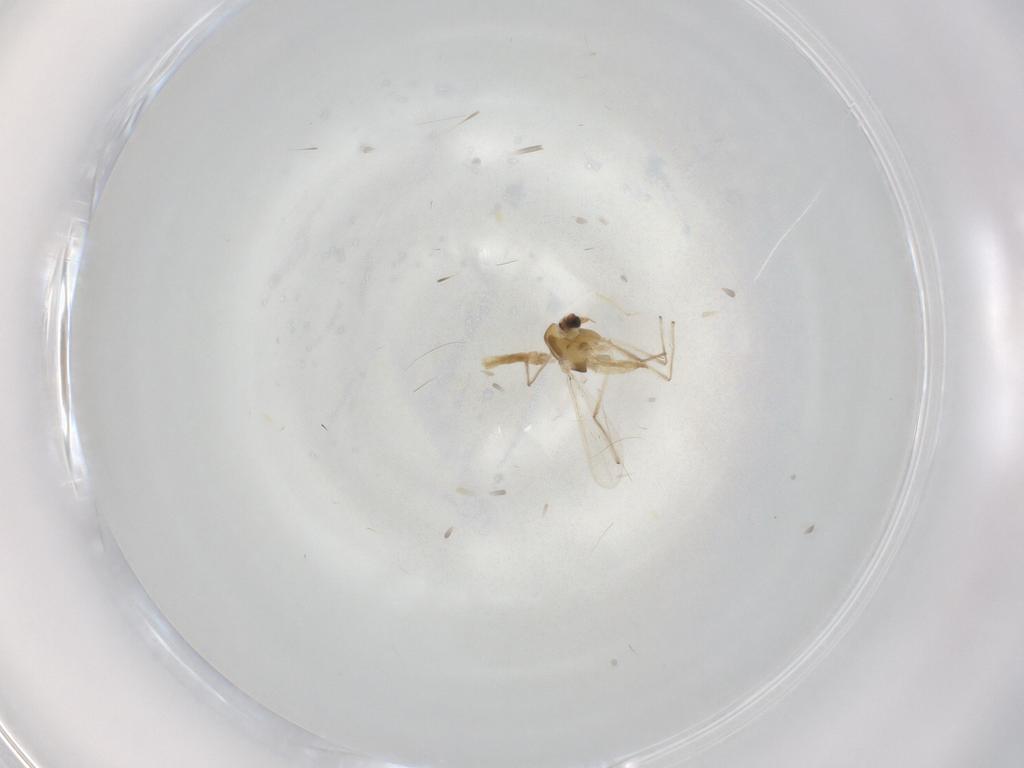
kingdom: Animalia
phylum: Arthropoda
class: Insecta
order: Diptera
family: Chironomidae
